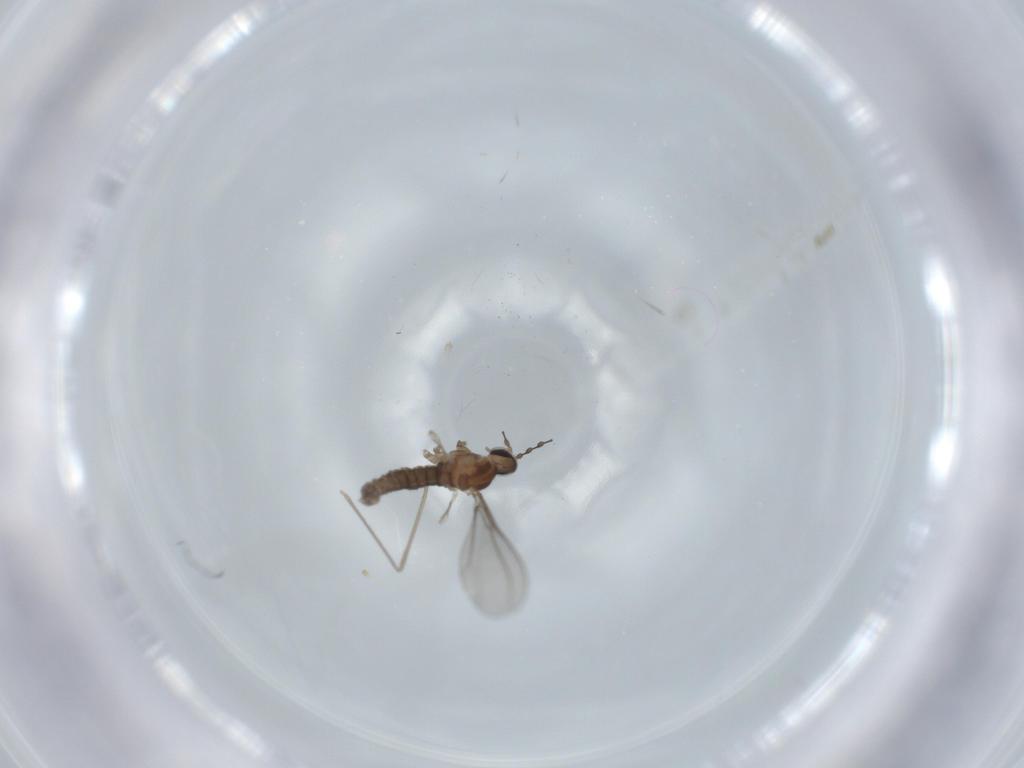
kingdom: Animalia
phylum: Arthropoda
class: Insecta
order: Diptera
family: Cecidomyiidae
